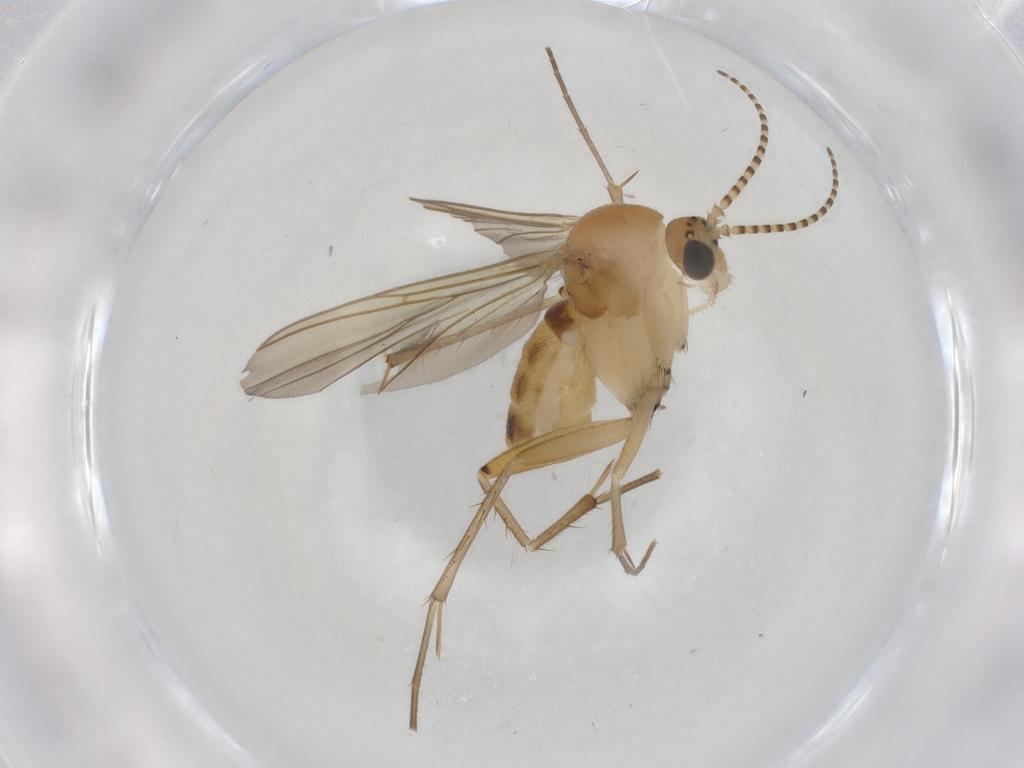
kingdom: Animalia
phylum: Arthropoda
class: Insecta
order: Diptera
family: Mycetophilidae
